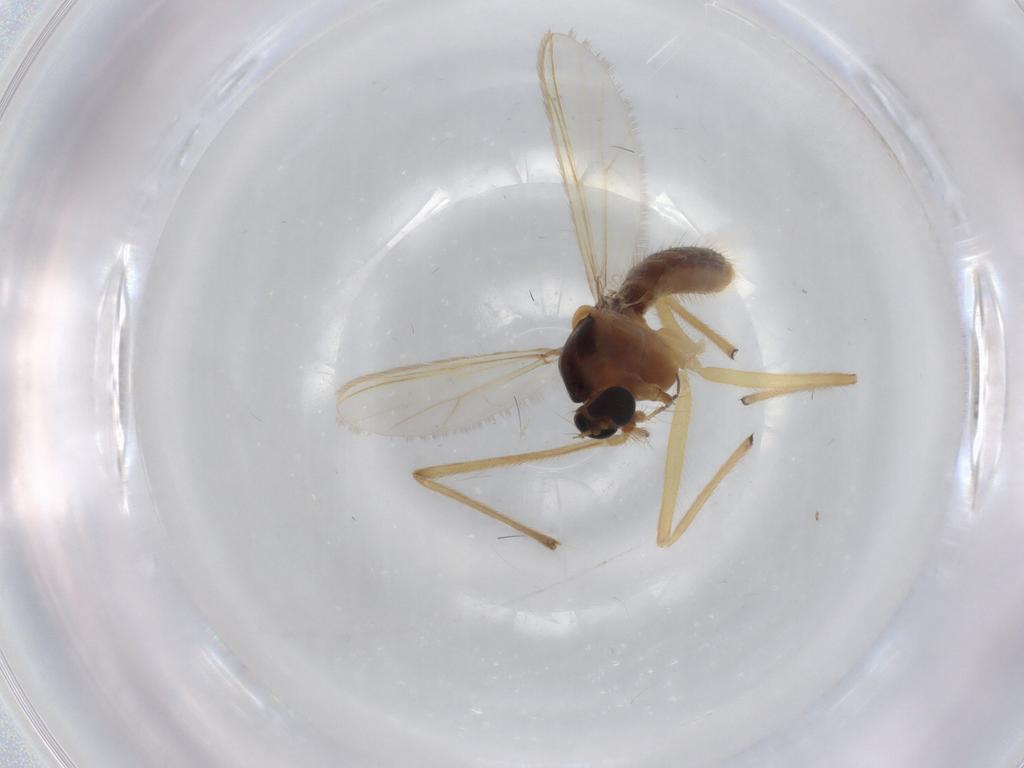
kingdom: Animalia
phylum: Arthropoda
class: Insecta
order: Diptera
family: Chironomidae
